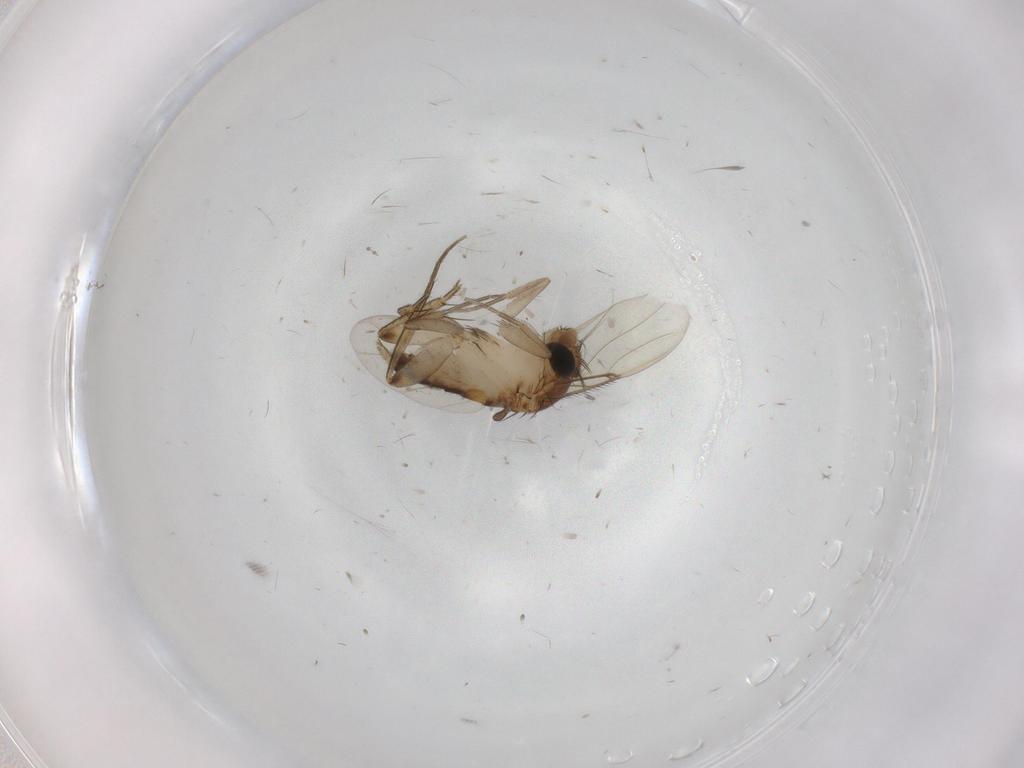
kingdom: Animalia
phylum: Arthropoda
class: Insecta
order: Diptera
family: Cecidomyiidae
